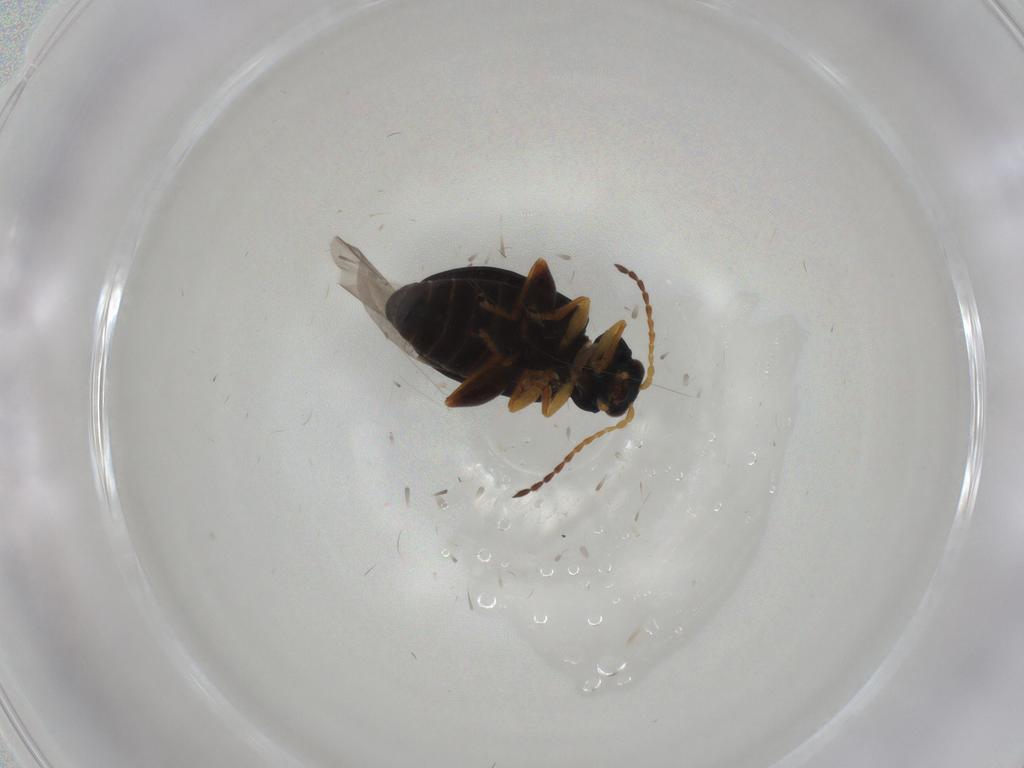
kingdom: Animalia
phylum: Arthropoda
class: Insecta
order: Coleoptera
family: Chrysomelidae
